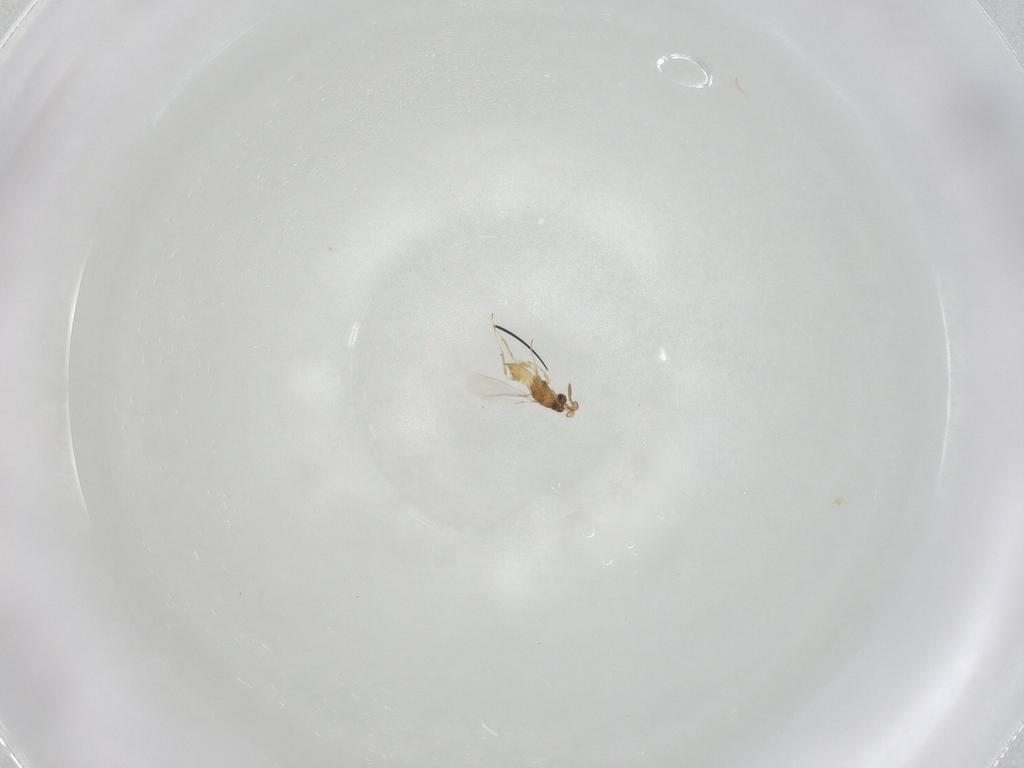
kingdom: Animalia
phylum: Arthropoda
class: Insecta
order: Hymenoptera
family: Mymaridae
